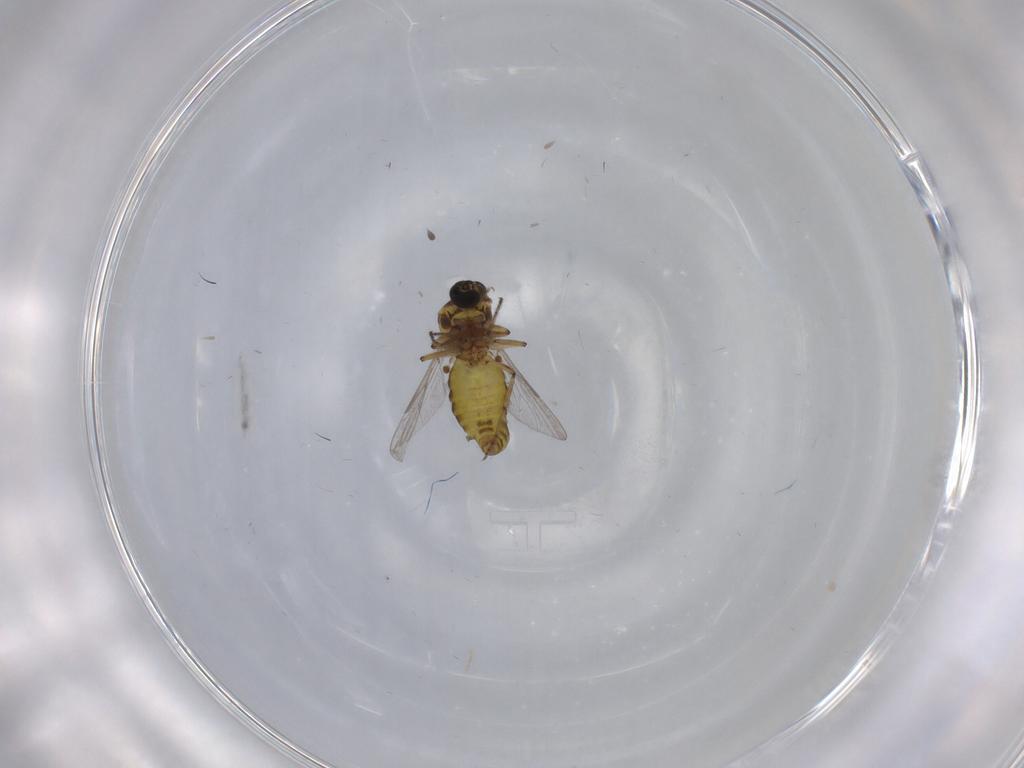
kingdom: Animalia
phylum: Arthropoda
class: Insecta
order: Diptera
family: Ceratopogonidae
